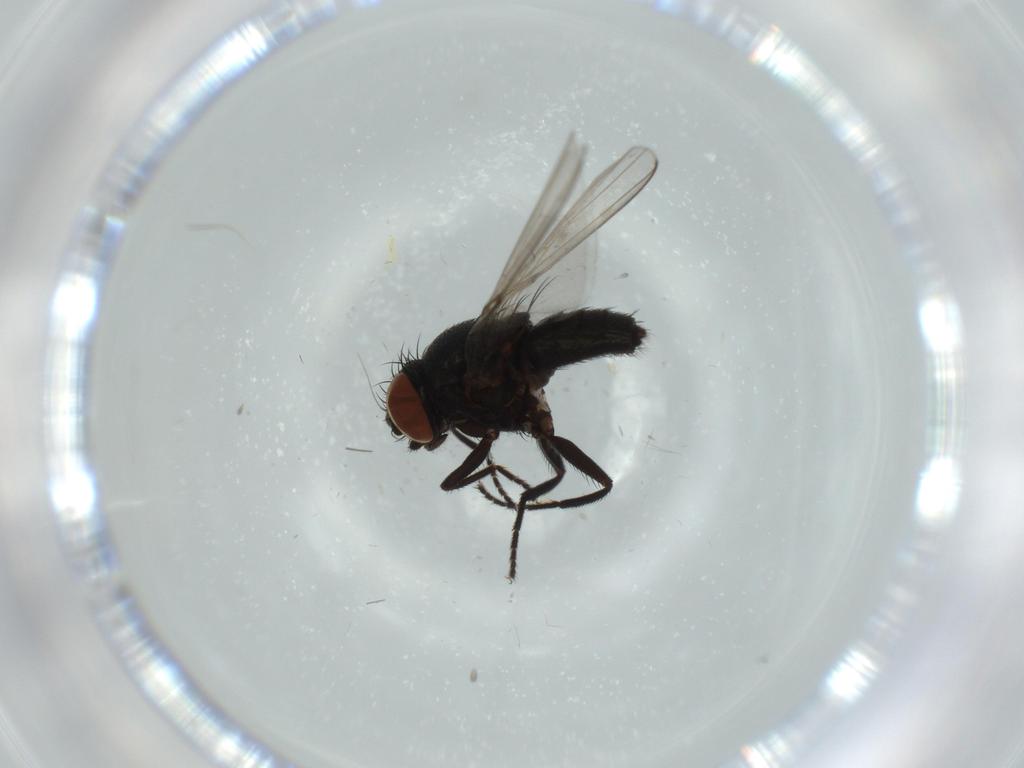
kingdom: Animalia
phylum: Arthropoda
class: Insecta
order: Diptera
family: Milichiidae
